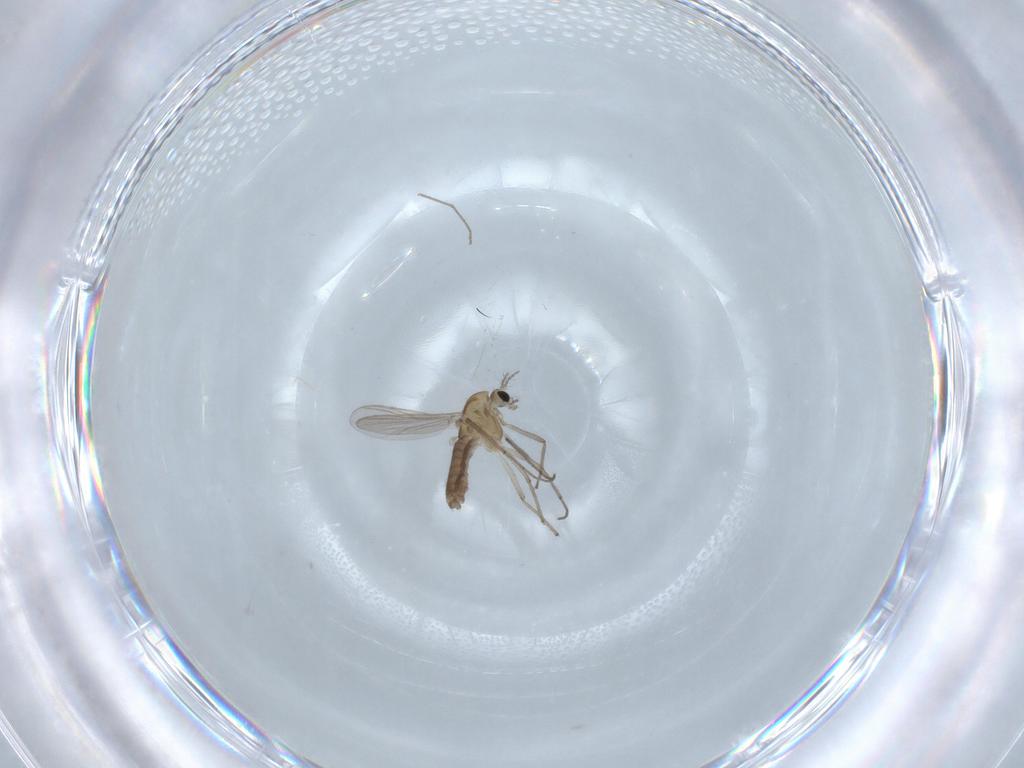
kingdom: Animalia
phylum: Arthropoda
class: Insecta
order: Diptera
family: Chironomidae
